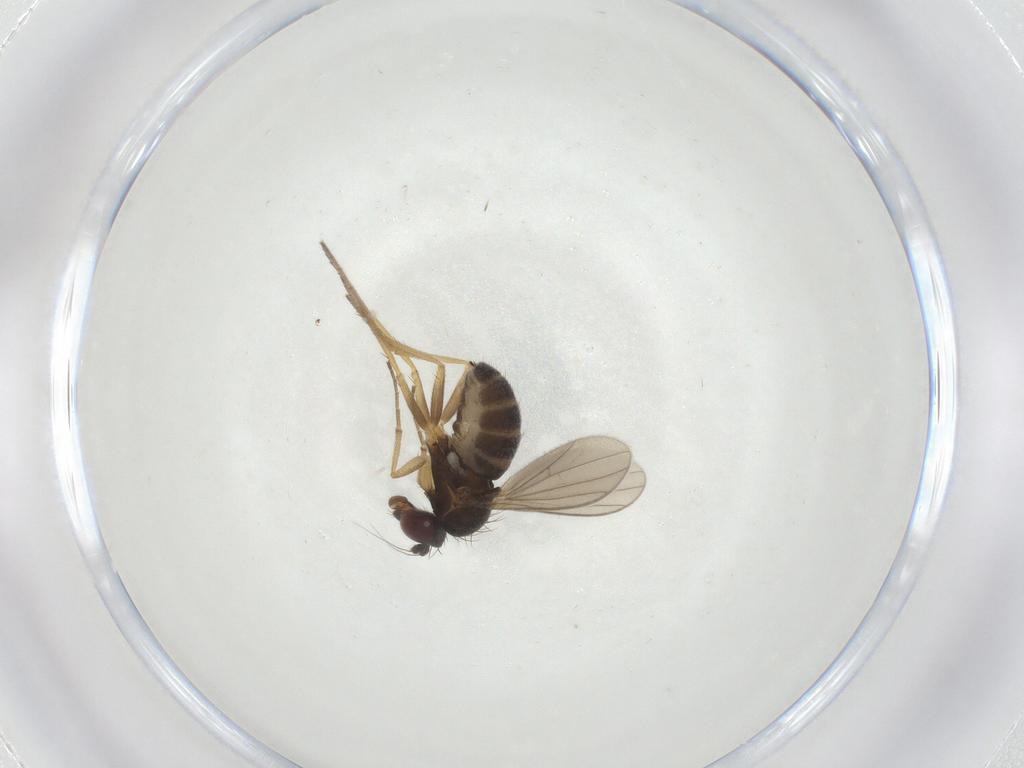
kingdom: Animalia
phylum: Arthropoda
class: Insecta
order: Diptera
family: Dolichopodidae
